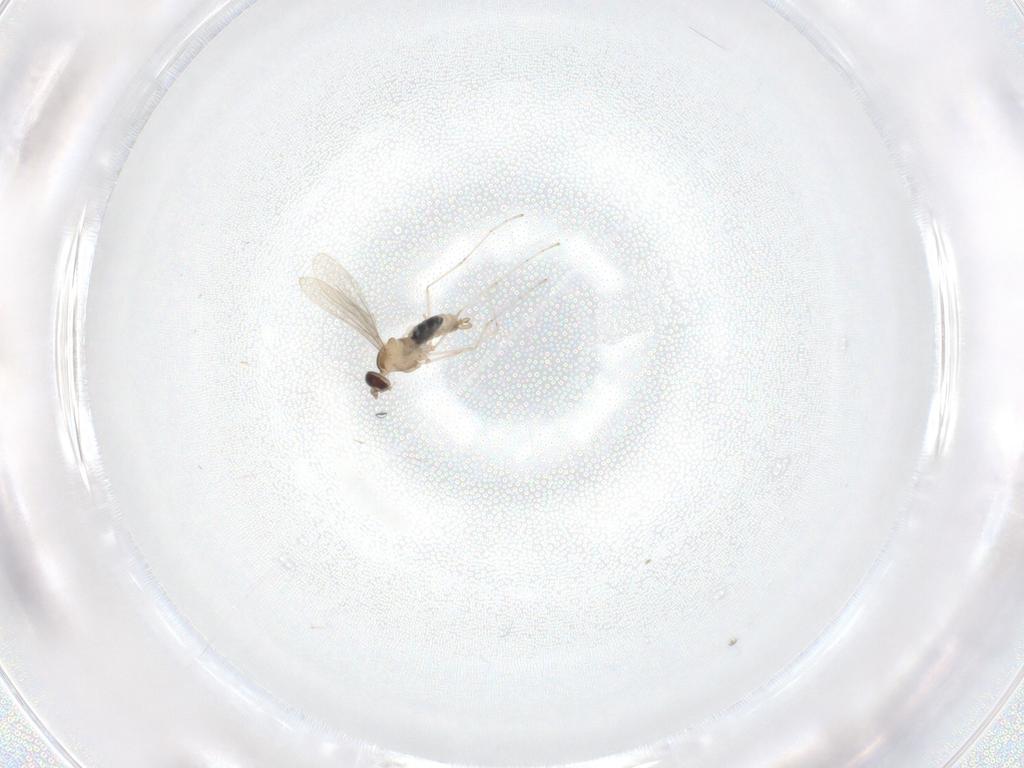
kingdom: Animalia
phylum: Arthropoda
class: Insecta
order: Diptera
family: Cecidomyiidae
